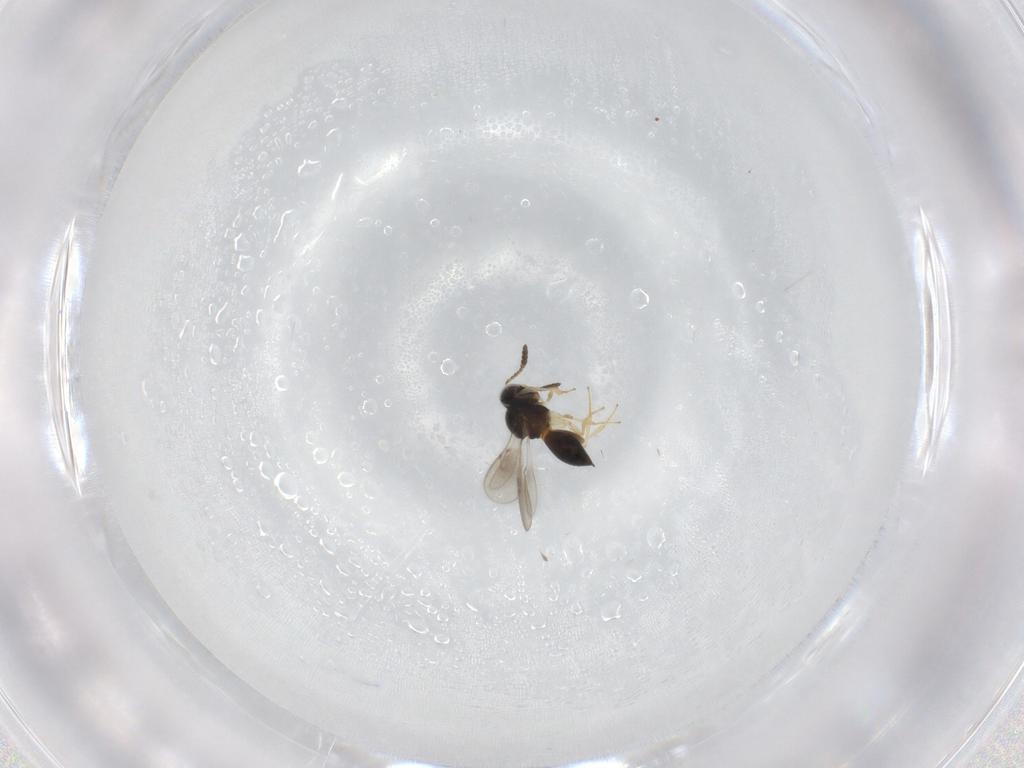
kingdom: Animalia
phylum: Arthropoda
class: Insecta
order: Hymenoptera
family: Scelionidae
